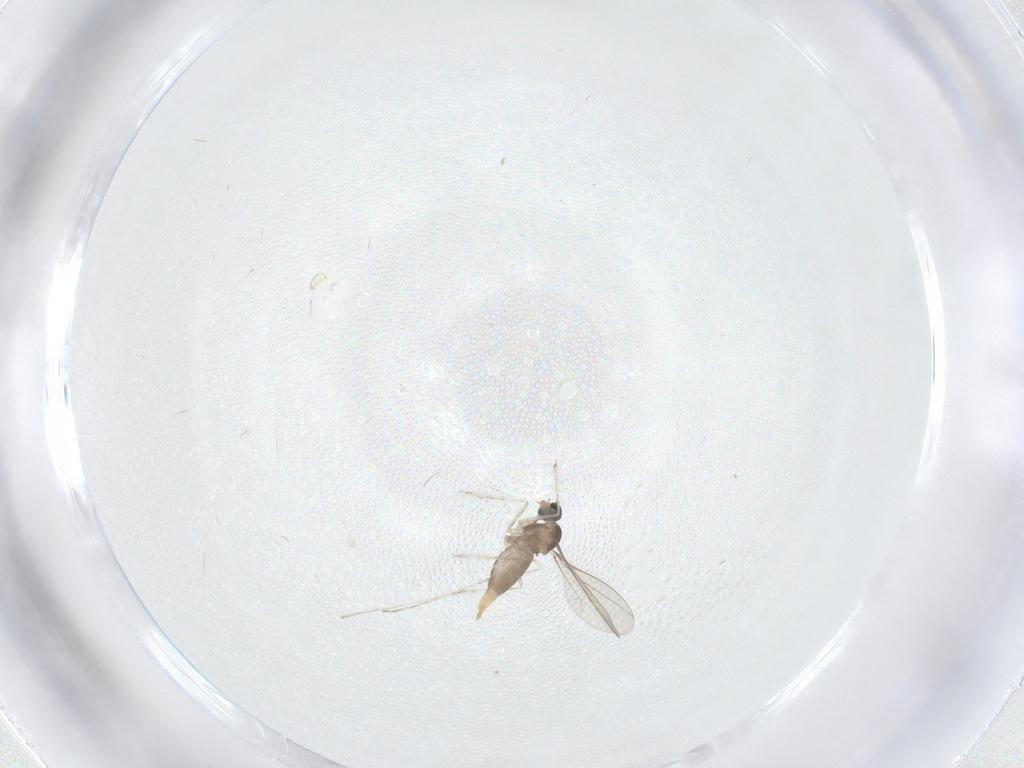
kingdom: Animalia
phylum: Arthropoda
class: Insecta
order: Diptera
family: Cecidomyiidae
